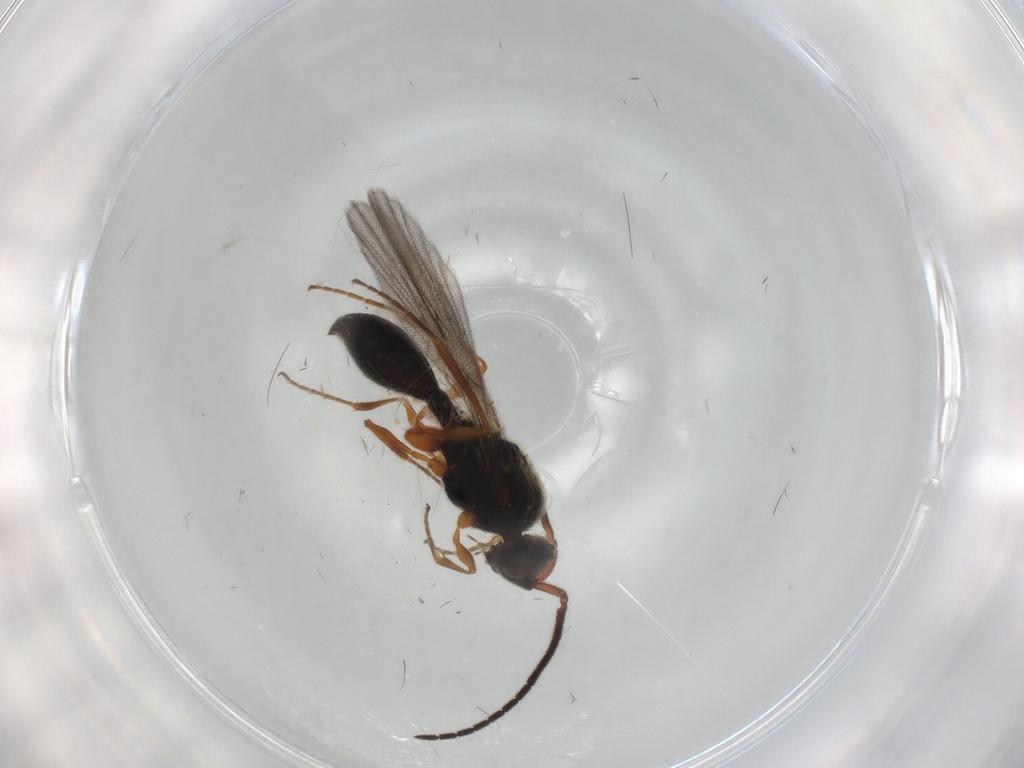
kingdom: Animalia
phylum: Arthropoda
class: Insecta
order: Hymenoptera
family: Diapriidae
